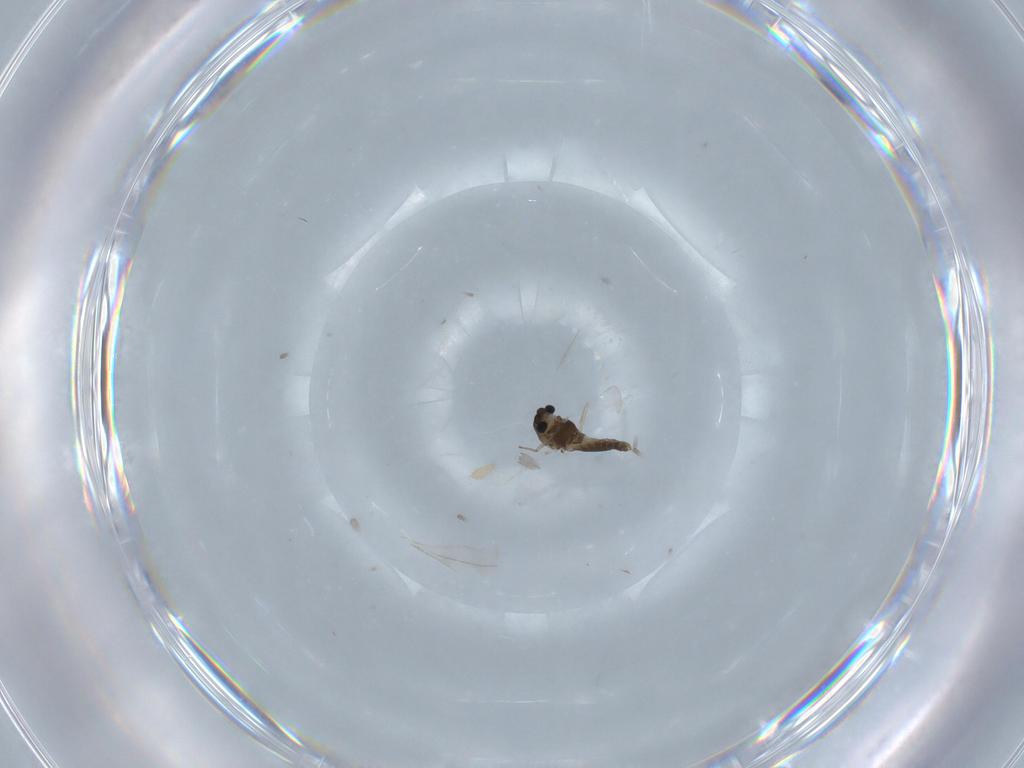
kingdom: Animalia
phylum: Arthropoda
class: Insecta
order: Diptera
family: Chironomidae
